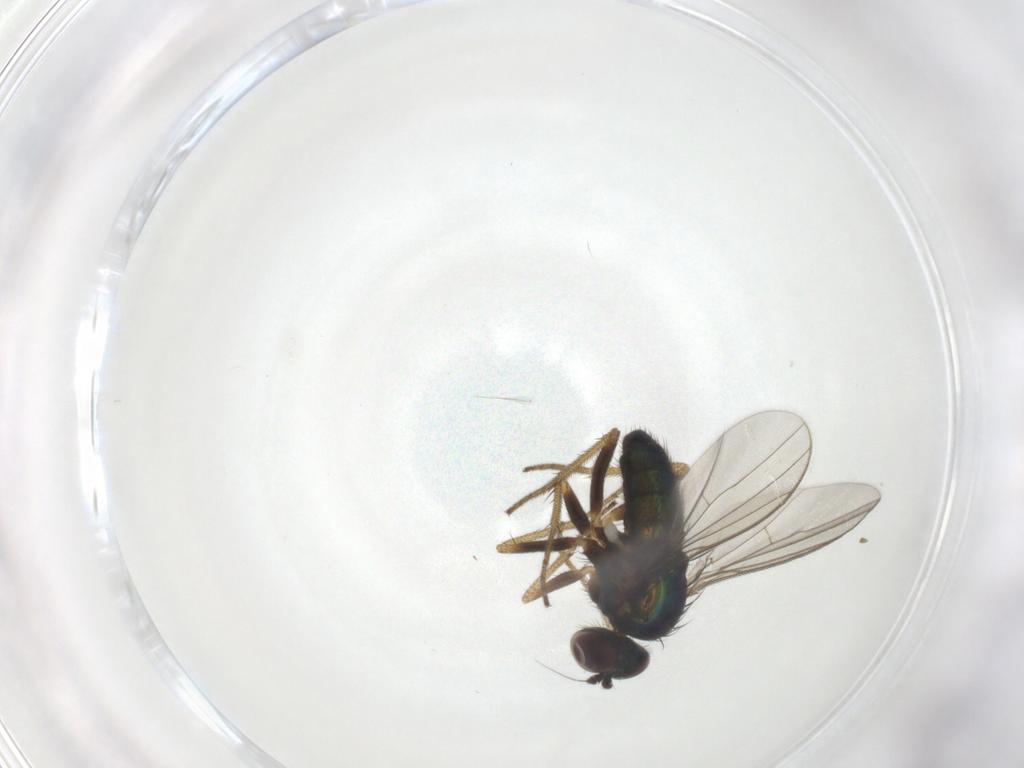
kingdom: Animalia
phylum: Arthropoda
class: Insecta
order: Diptera
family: Dolichopodidae
